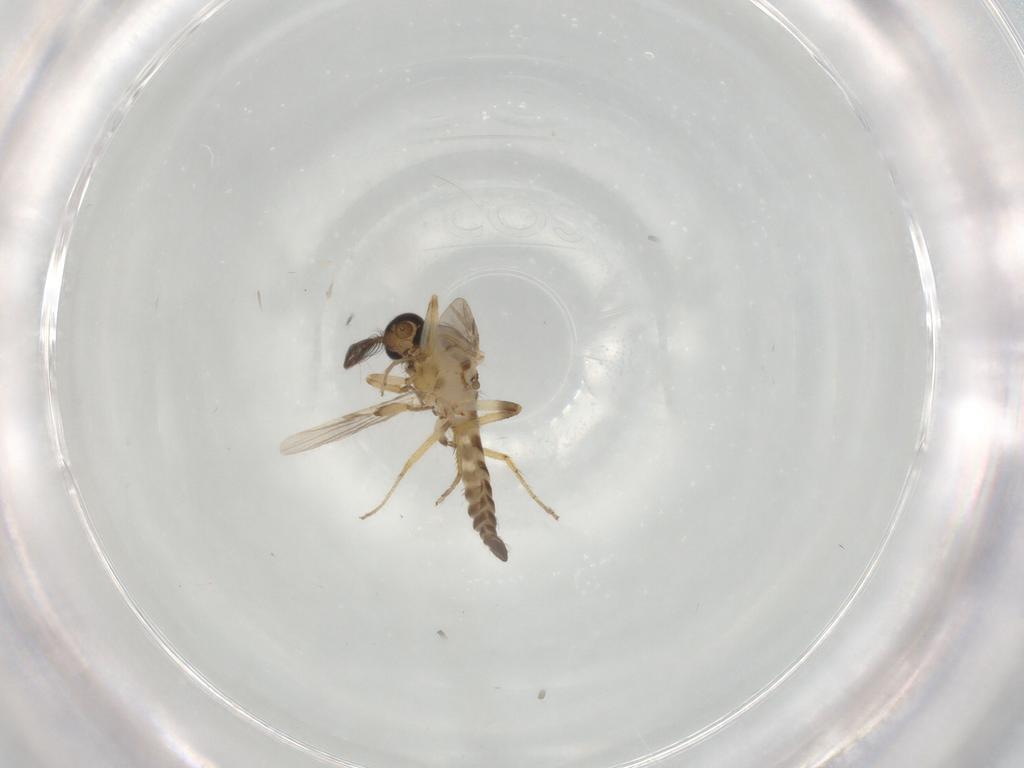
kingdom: Animalia
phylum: Arthropoda
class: Insecta
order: Diptera
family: Ceratopogonidae
